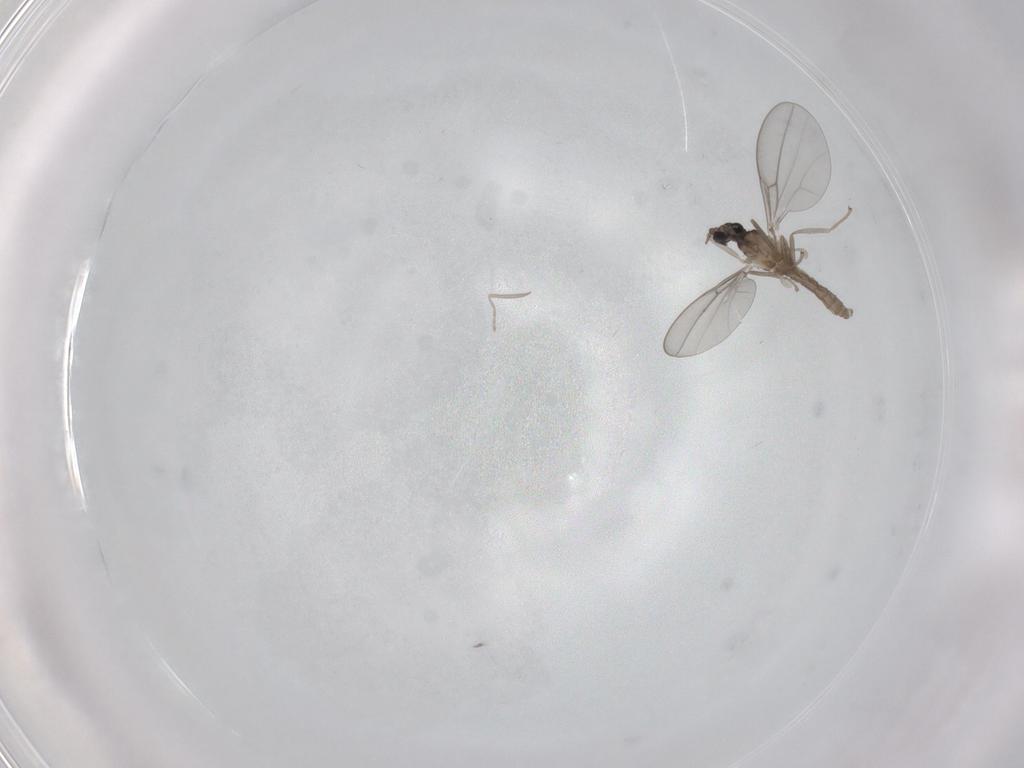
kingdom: Animalia
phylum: Arthropoda
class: Insecta
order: Diptera
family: Cecidomyiidae
